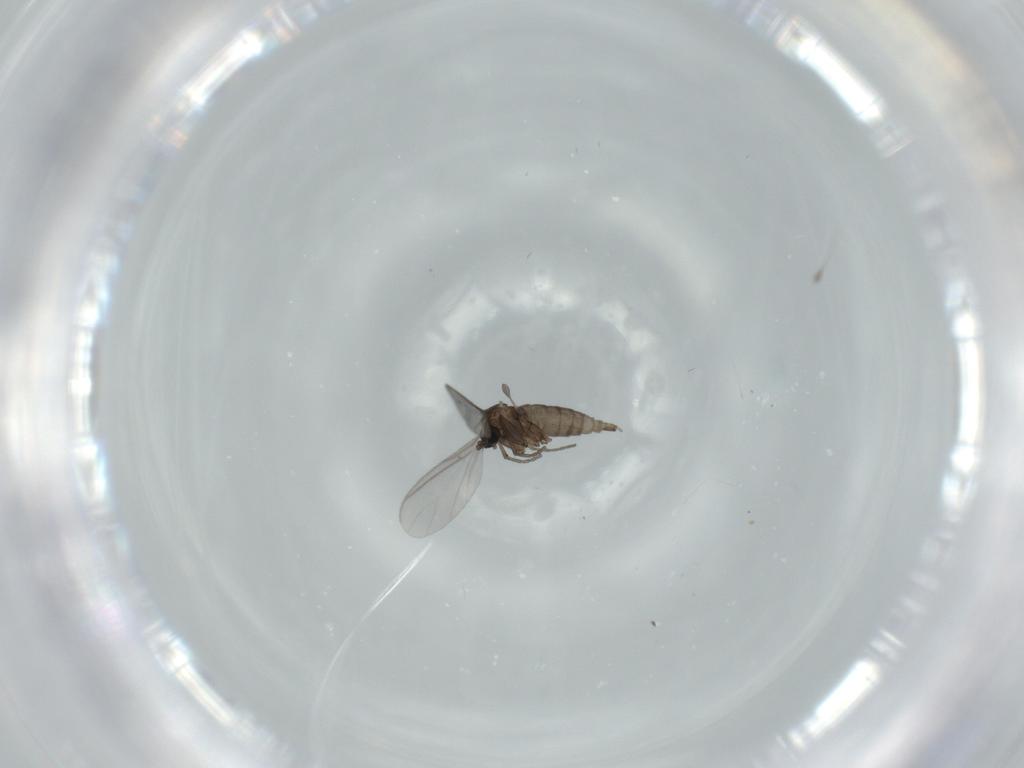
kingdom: Animalia
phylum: Arthropoda
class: Insecta
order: Diptera
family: Sciaridae
